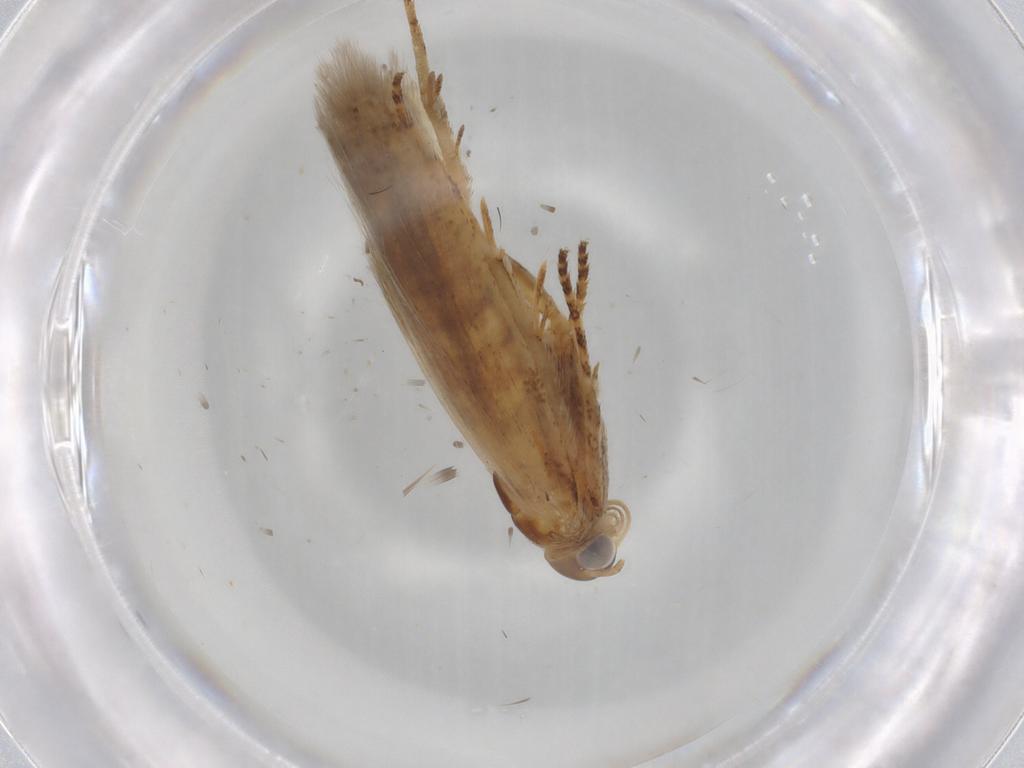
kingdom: Animalia
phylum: Arthropoda
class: Insecta
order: Lepidoptera
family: Gelechiidae
